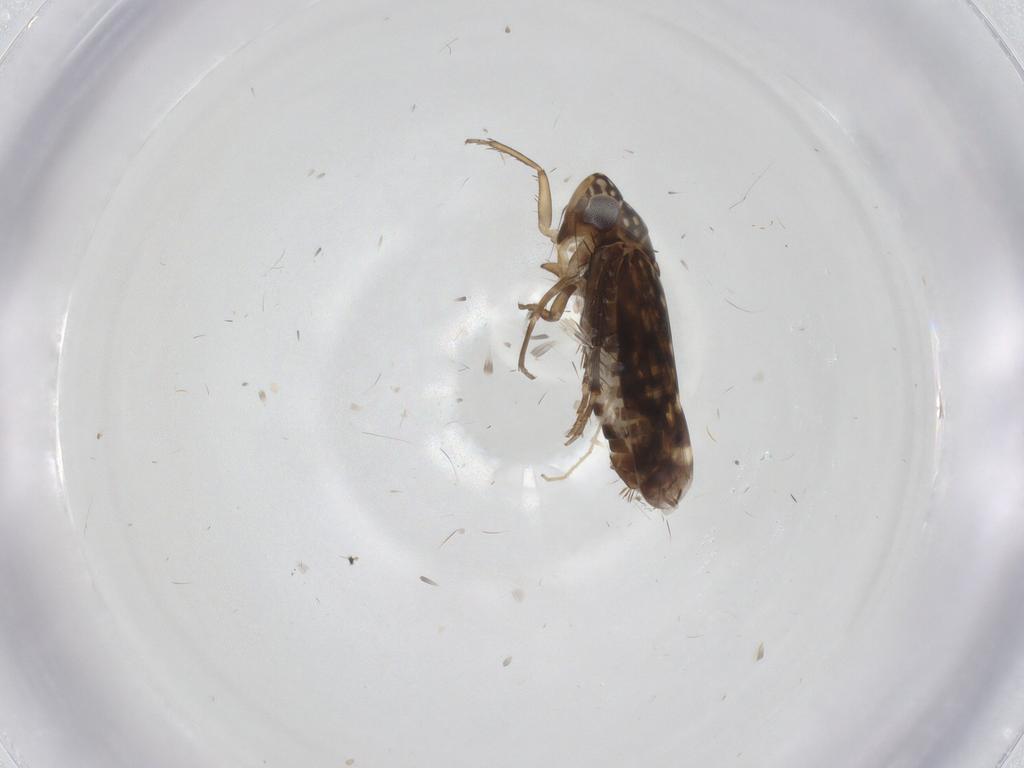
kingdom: Animalia
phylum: Arthropoda
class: Insecta
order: Hemiptera
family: Cicadellidae
